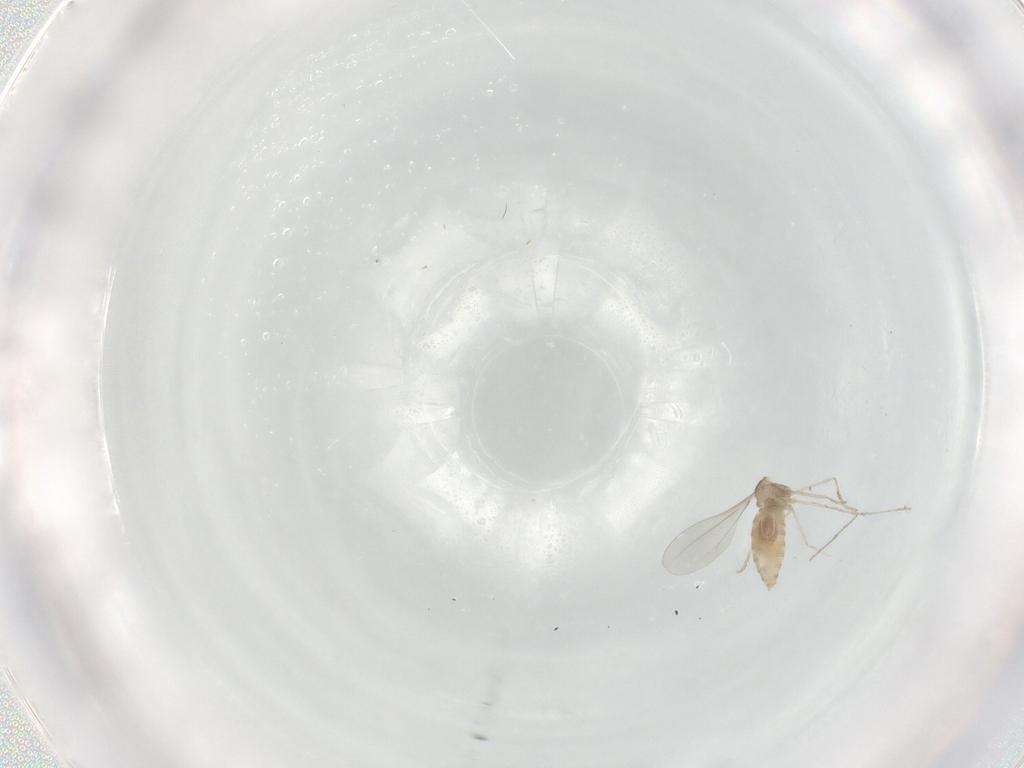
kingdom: Animalia
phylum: Arthropoda
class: Insecta
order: Diptera
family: Cecidomyiidae
